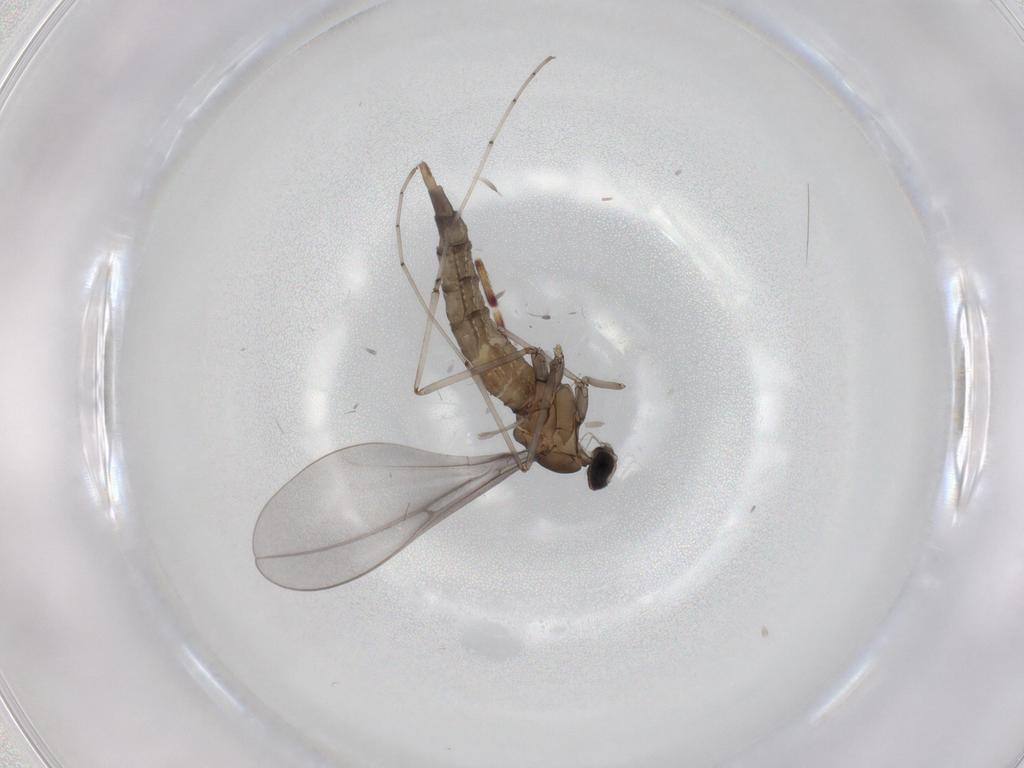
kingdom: Animalia
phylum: Arthropoda
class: Insecta
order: Diptera
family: Cecidomyiidae
